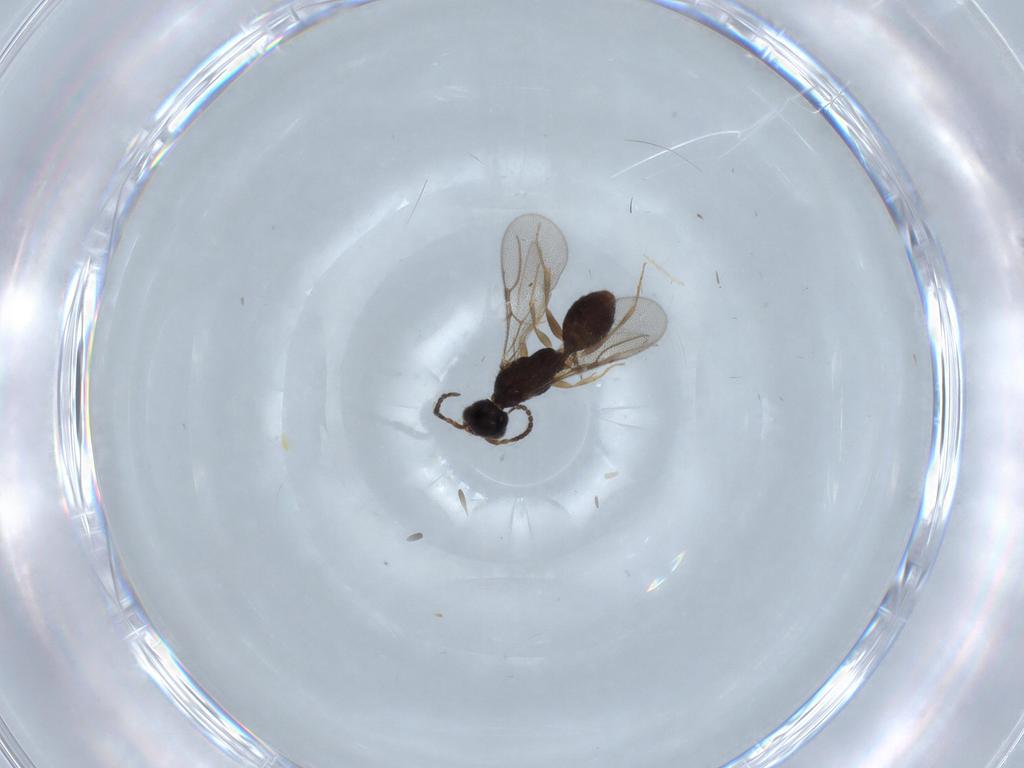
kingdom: Animalia
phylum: Arthropoda
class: Insecta
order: Hymenoptera
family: Bethylidae
